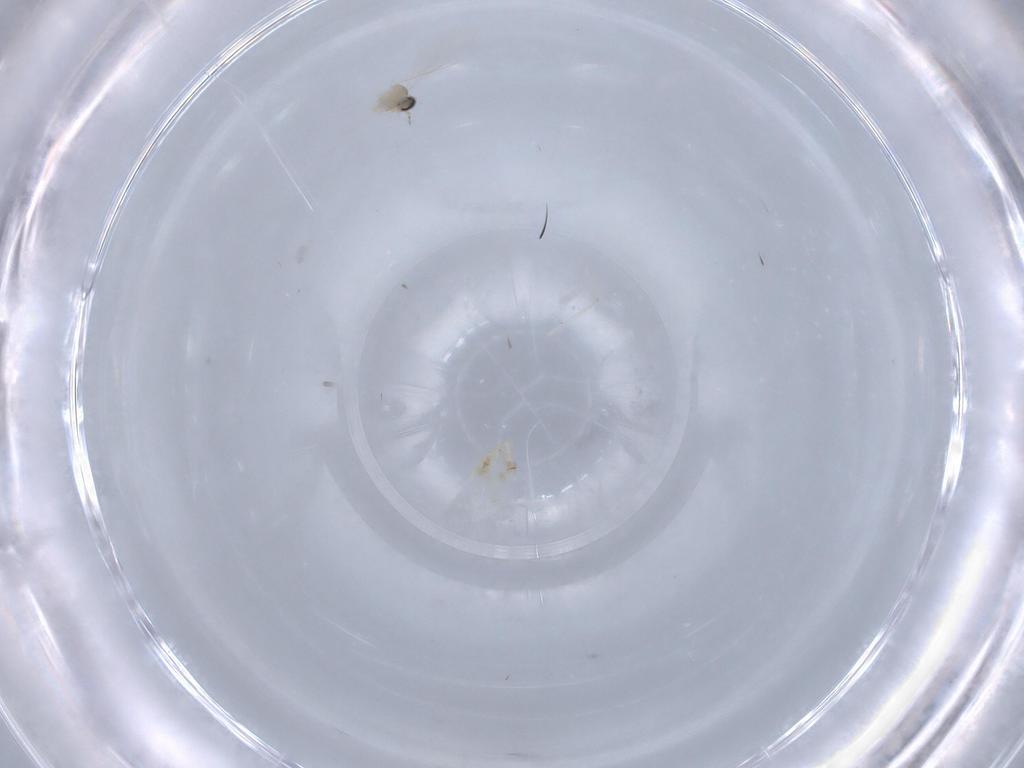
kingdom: Animalia
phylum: Arthropoda
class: Insecta
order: Diptera
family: Cecidomyiidae
